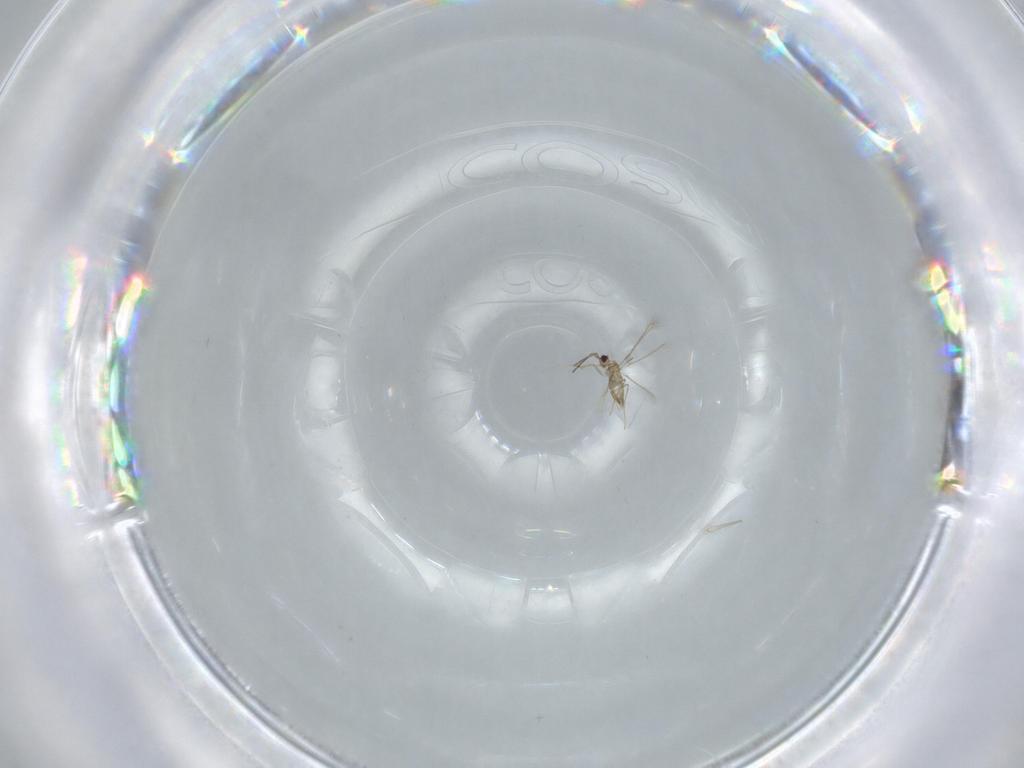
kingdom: Animalia
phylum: Arthropoda
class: Insecta
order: Hymenoptera
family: Mymaridae
